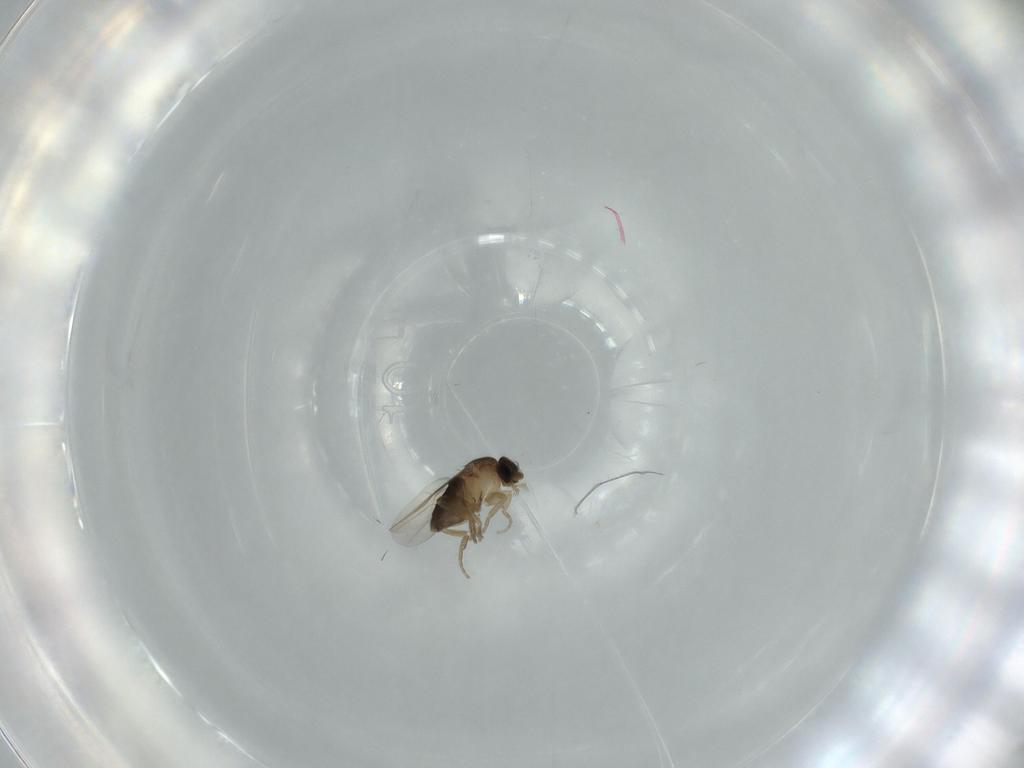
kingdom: Animalia
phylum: Arthropoda
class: Insecta
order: Diptera
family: Phoridae
